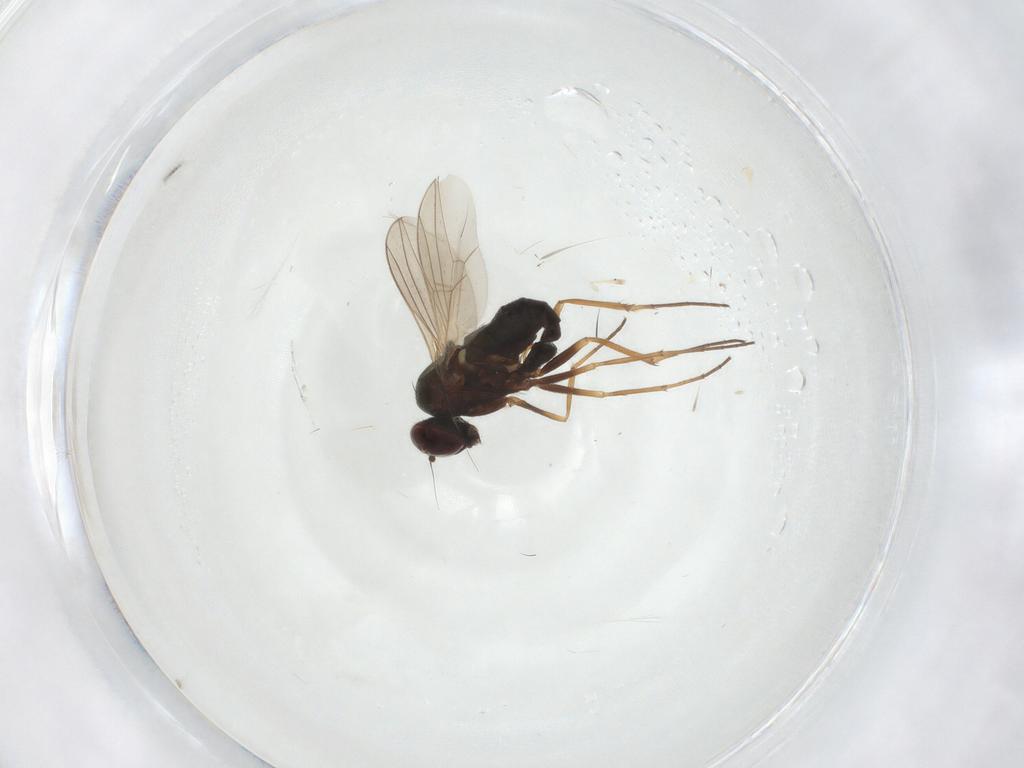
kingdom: Animalia
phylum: Arthropoda
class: Insecta
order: Diptera
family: Dolichopodidae
